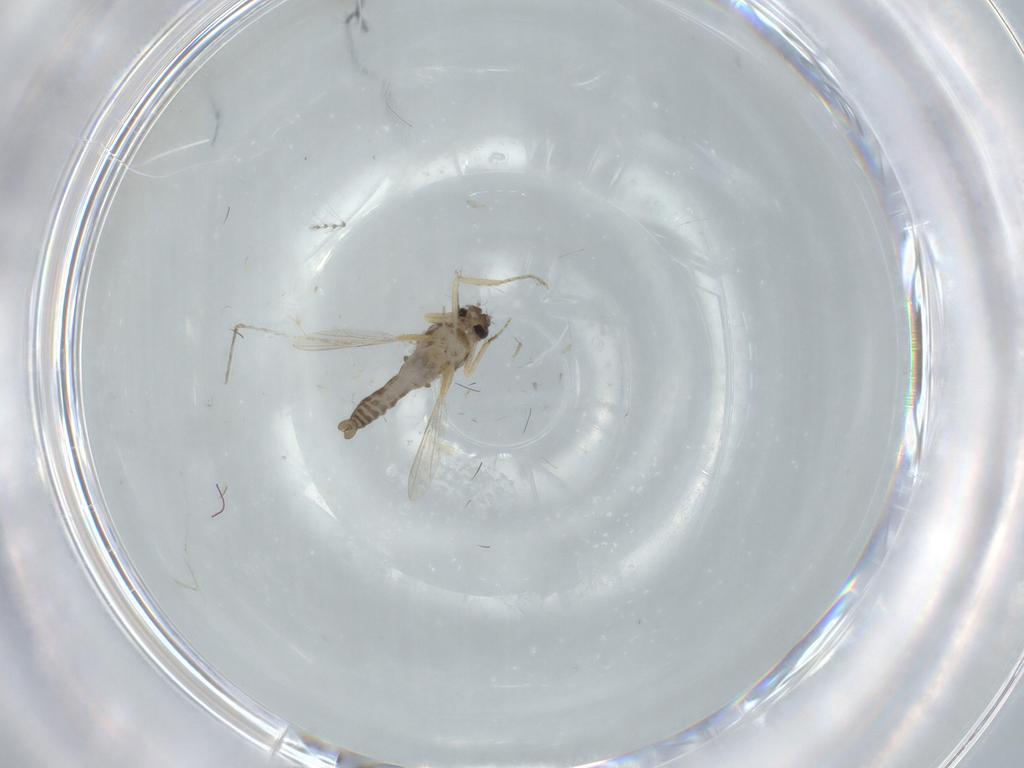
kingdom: Animalia
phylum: Arthropoda
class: Insecta
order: Diptera
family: Ceratopogonidae
